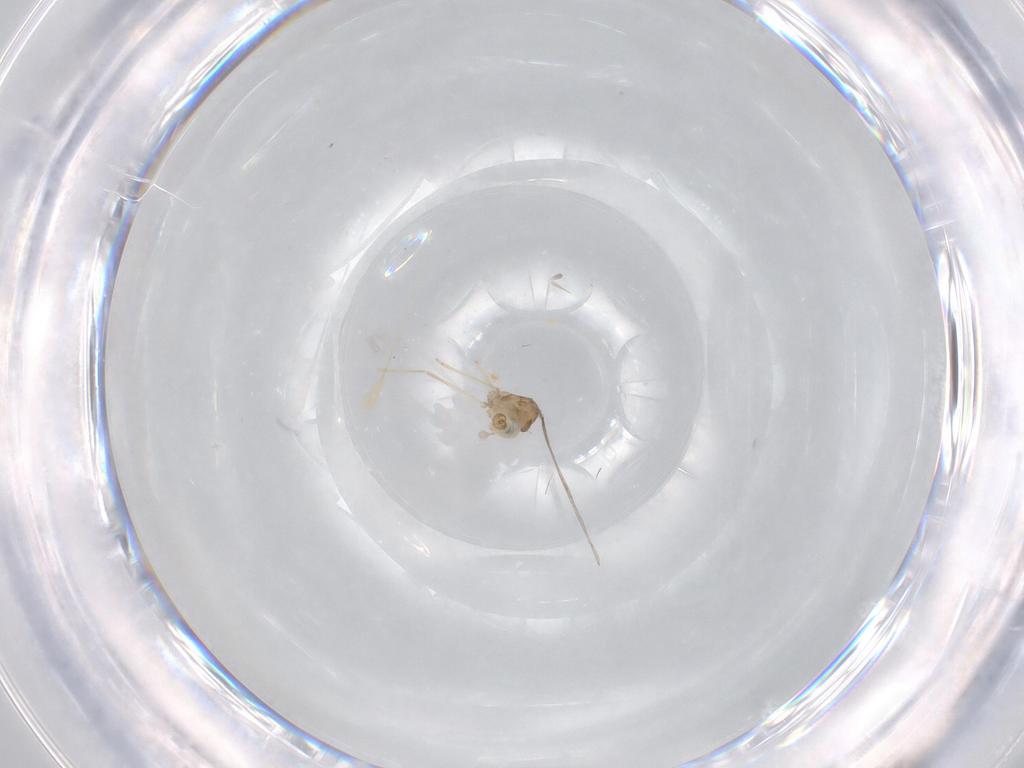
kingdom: Animalia
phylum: Arthropoda
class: Insecta
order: Diptera
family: Cecidomyiidae
